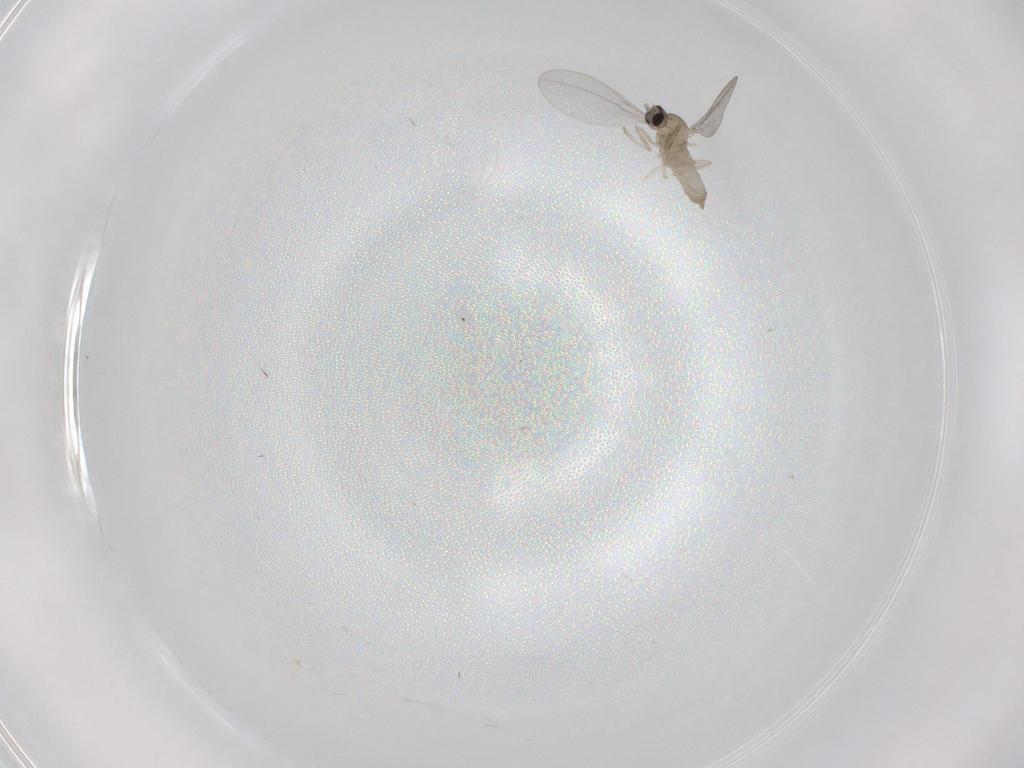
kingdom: Animalia
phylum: Arthropoda
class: Insecta
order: Diptera
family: Cecidomyiidae
